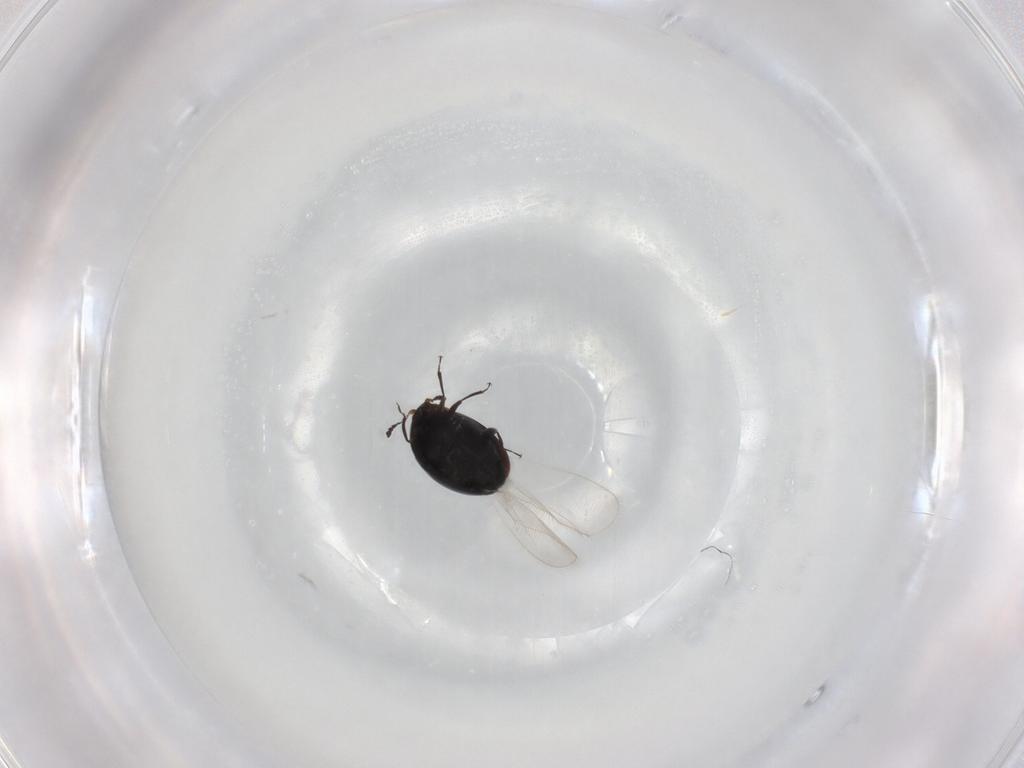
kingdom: Animalia
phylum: Arthropoda
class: Insecta
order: Coleoptera
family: Corylophidae
